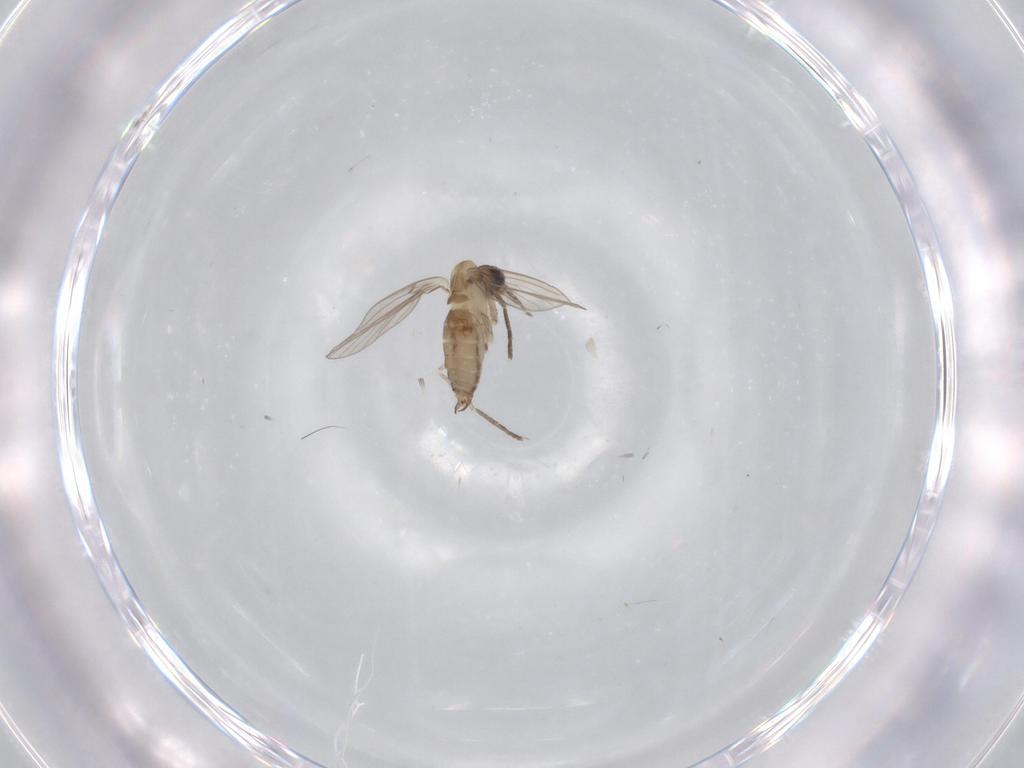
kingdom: Animalia
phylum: Arthropoda
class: Insecta
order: Diptera
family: Psychodidae
